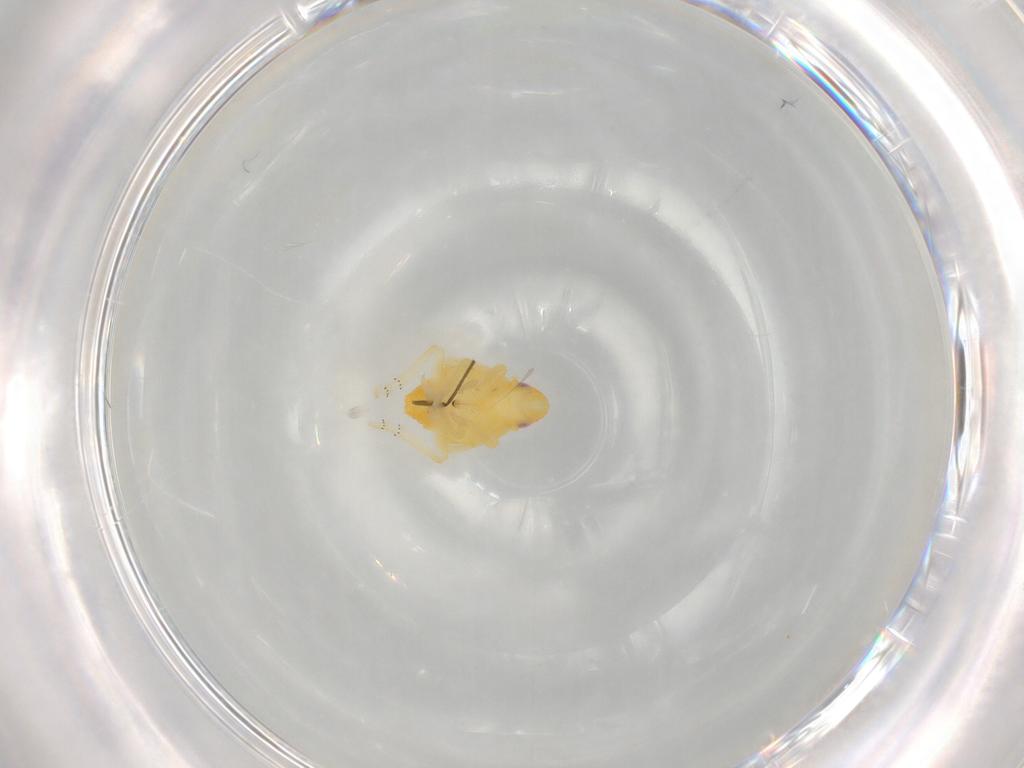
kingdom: Animalia
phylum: Arthropoda
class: Insecta
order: Hemiptera
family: Tropiduchidae
